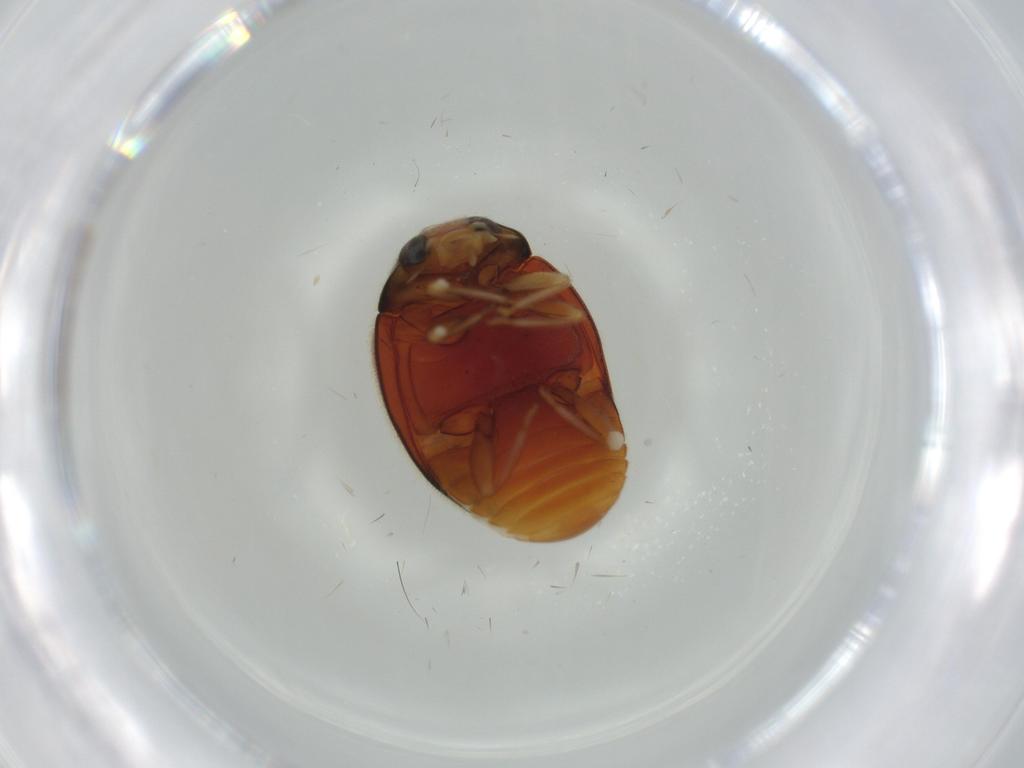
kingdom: Animalia
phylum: Arthropoda
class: Insecta
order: Coleoptera
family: Coccinellidae
